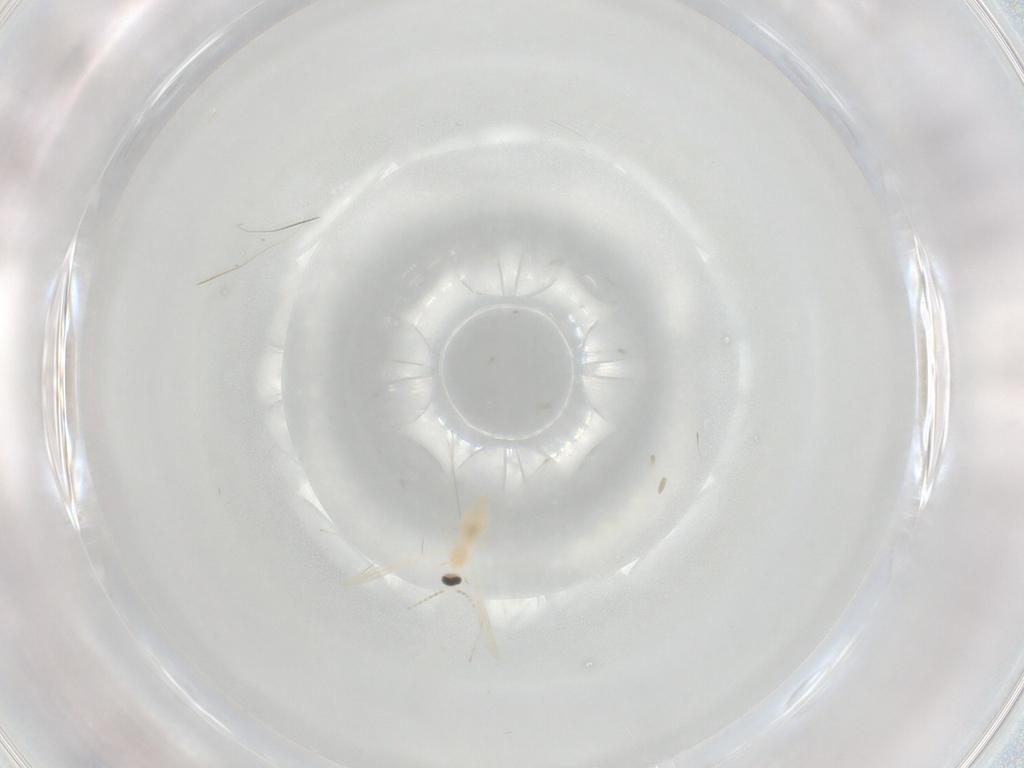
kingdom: Animalia
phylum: Arthropoda
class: Insecta
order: Diptera
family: Cecidomyiidae
